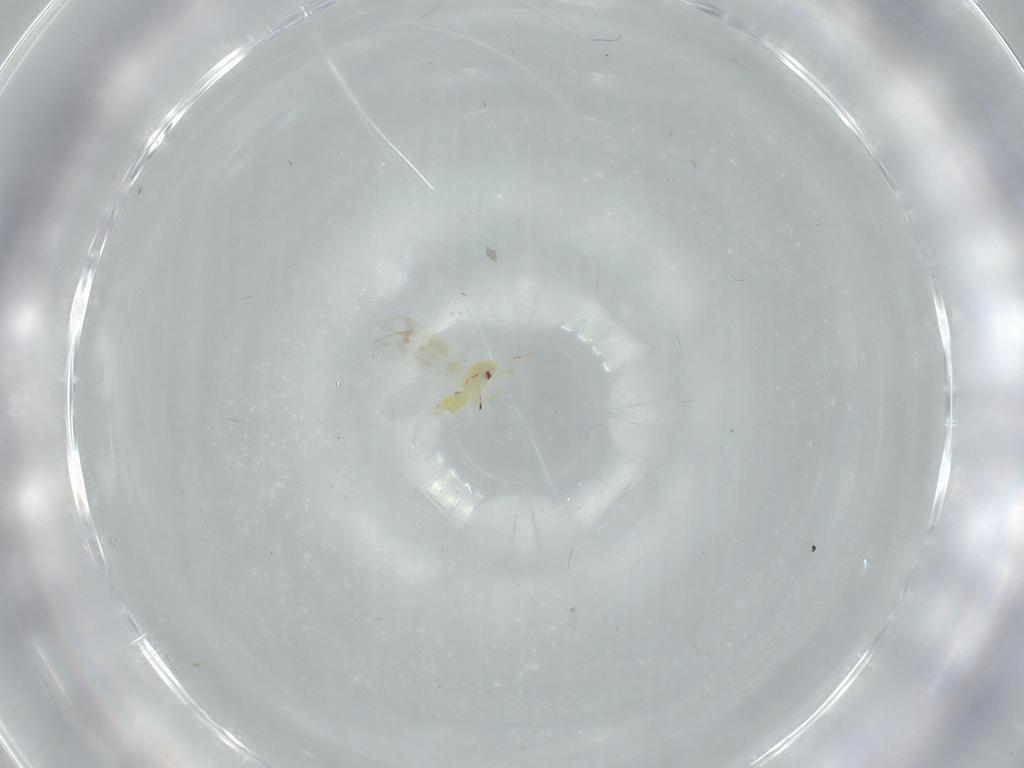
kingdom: Animalia
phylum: Arthropoda
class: Insecta
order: Hemiptera
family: Aleyrodidae
